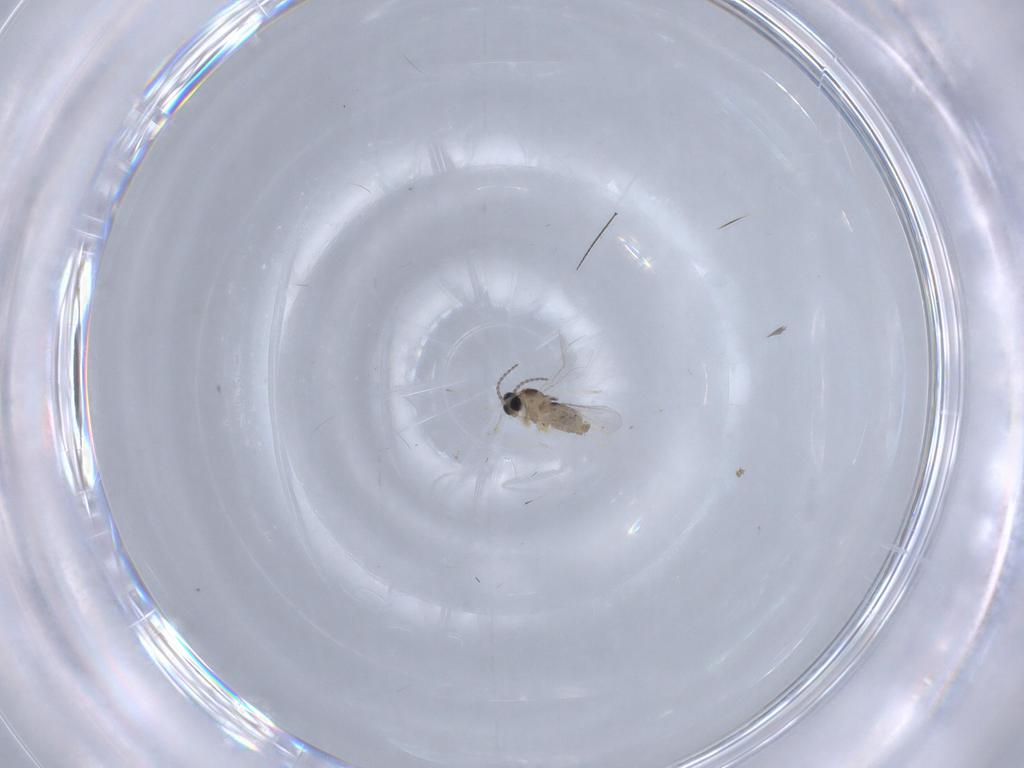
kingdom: Animalia
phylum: Arthropoda
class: Insecta
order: Diptera
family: Cecidomyiidae
